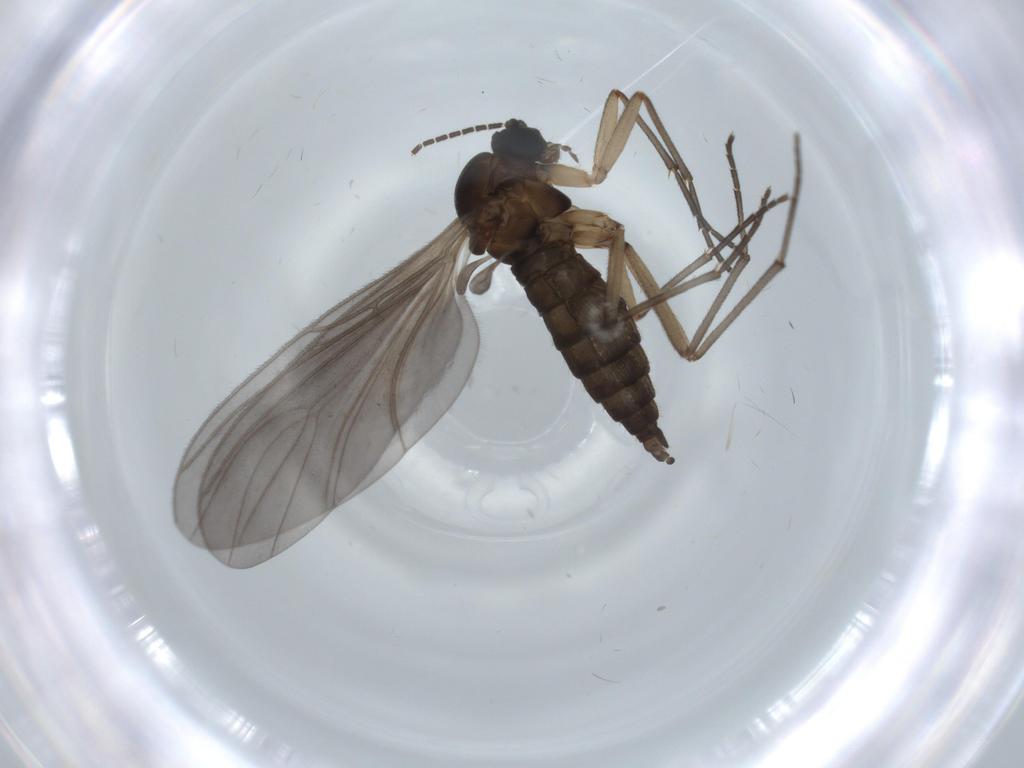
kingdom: Animalia
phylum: Arthropoda
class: Insecta
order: Diptera
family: Sciaridae
